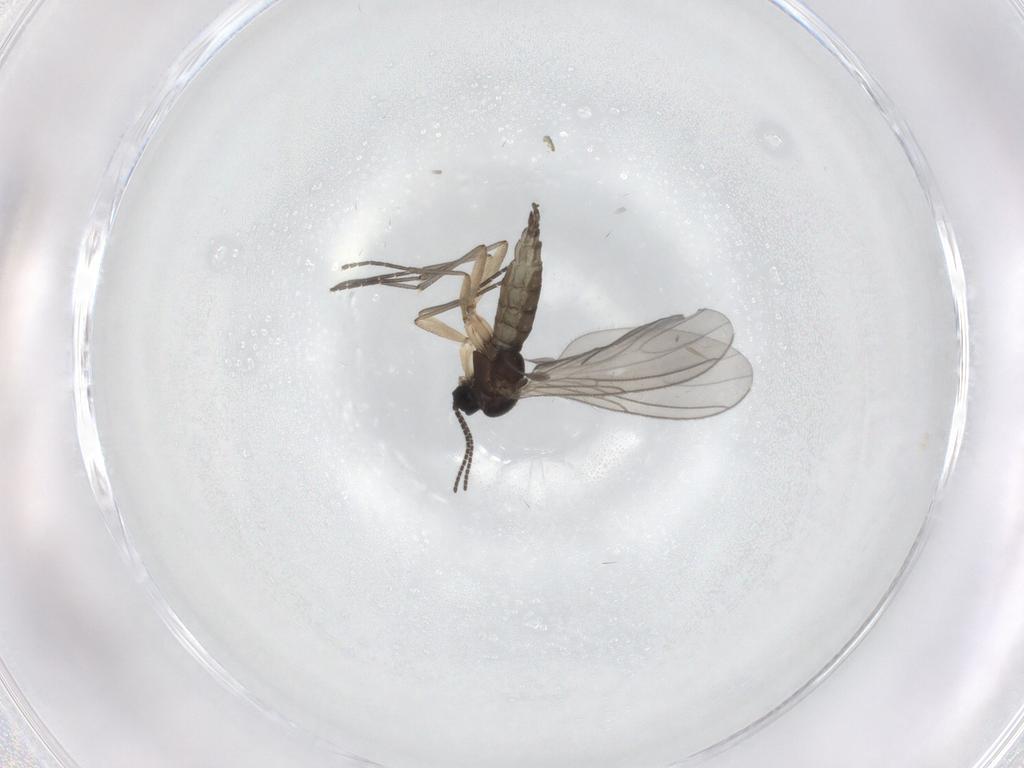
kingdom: Animalia
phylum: Arthropoda
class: Insecta
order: Diptera
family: Sciaridae
